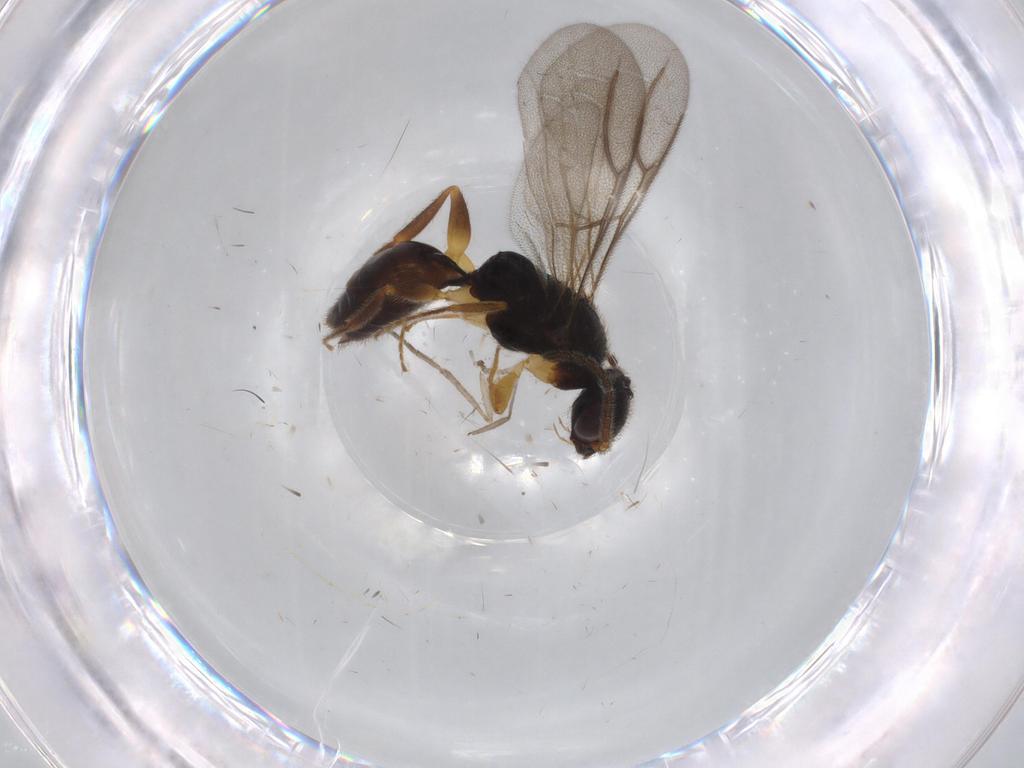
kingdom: Animalia
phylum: Arthropoda
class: Insecta
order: Hymenoptera
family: Bethylidae
